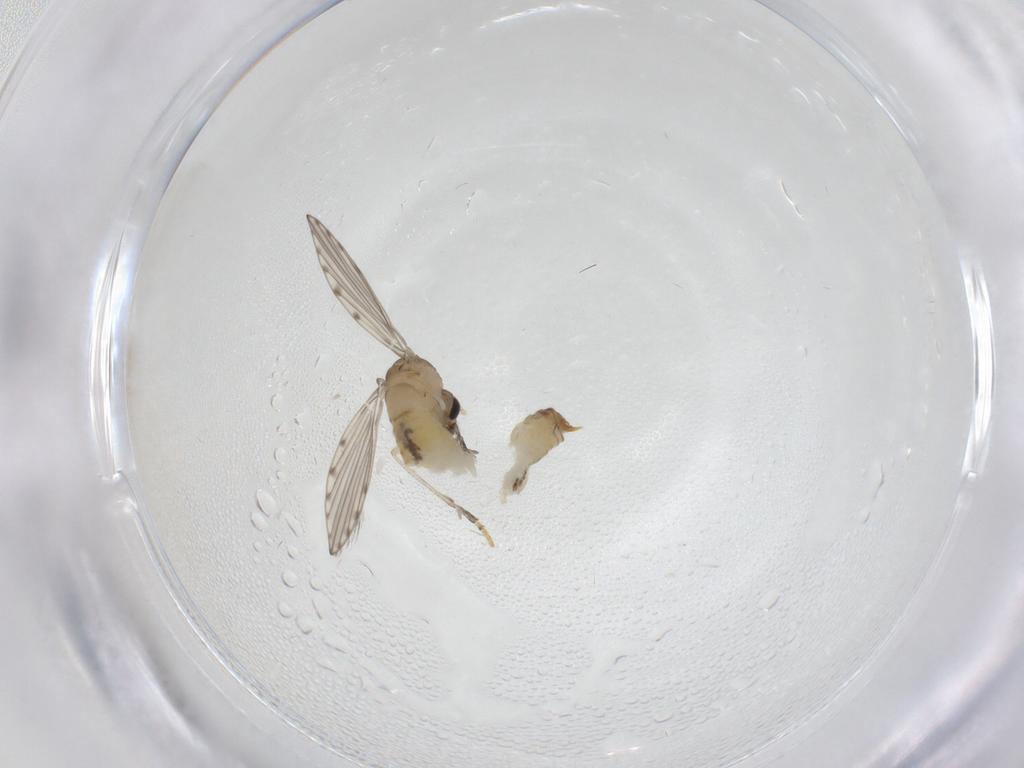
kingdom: Animalia
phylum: Arthropoda
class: Insecta
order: Diptera
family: Psychodidae
